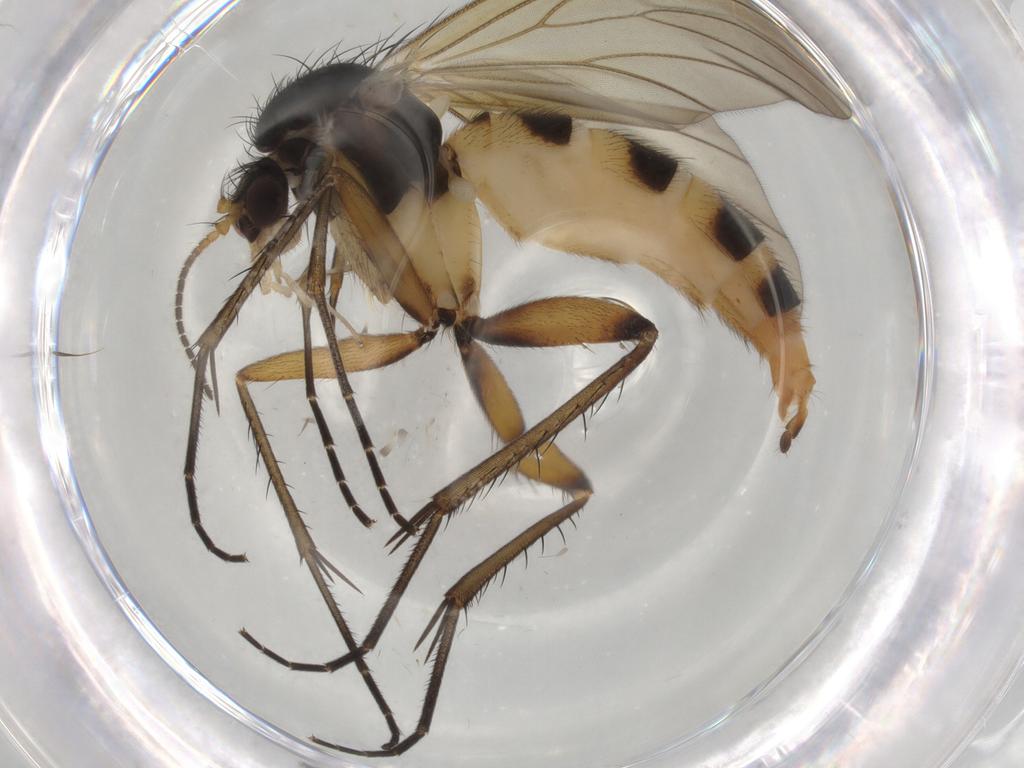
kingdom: Animalia
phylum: Arthropoda
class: Insecta
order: Diptera
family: Mycetophilidae
